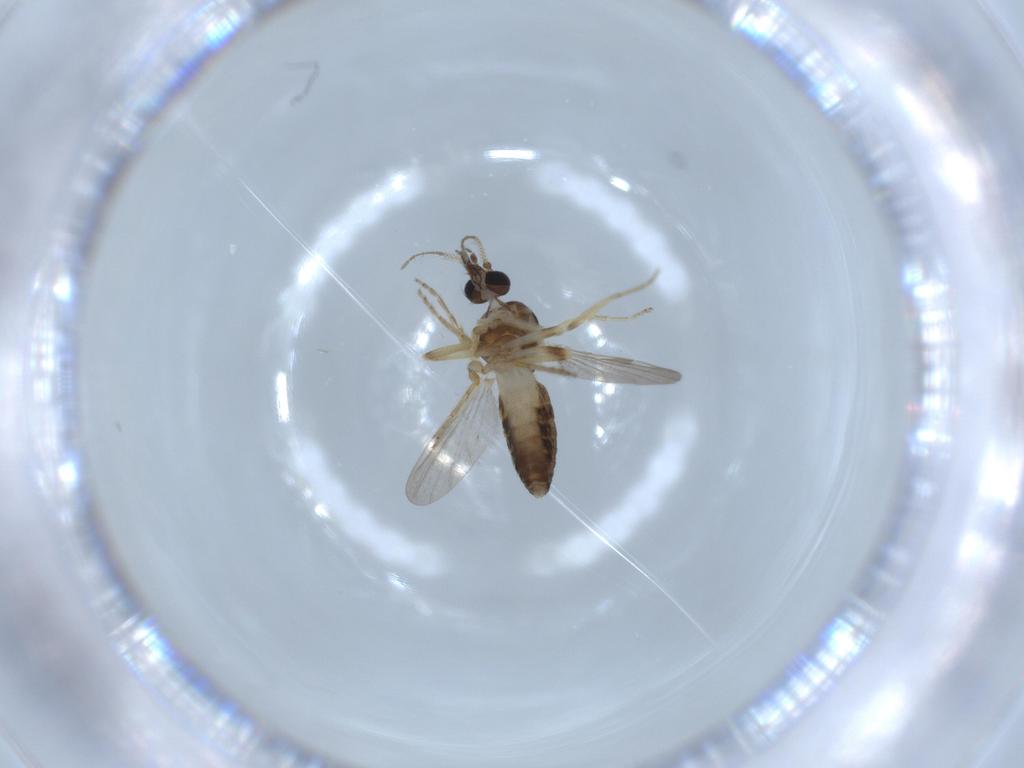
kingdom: Animalia
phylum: Arthropoda
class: Insecta
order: Diptera
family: Ceratopogonidae
